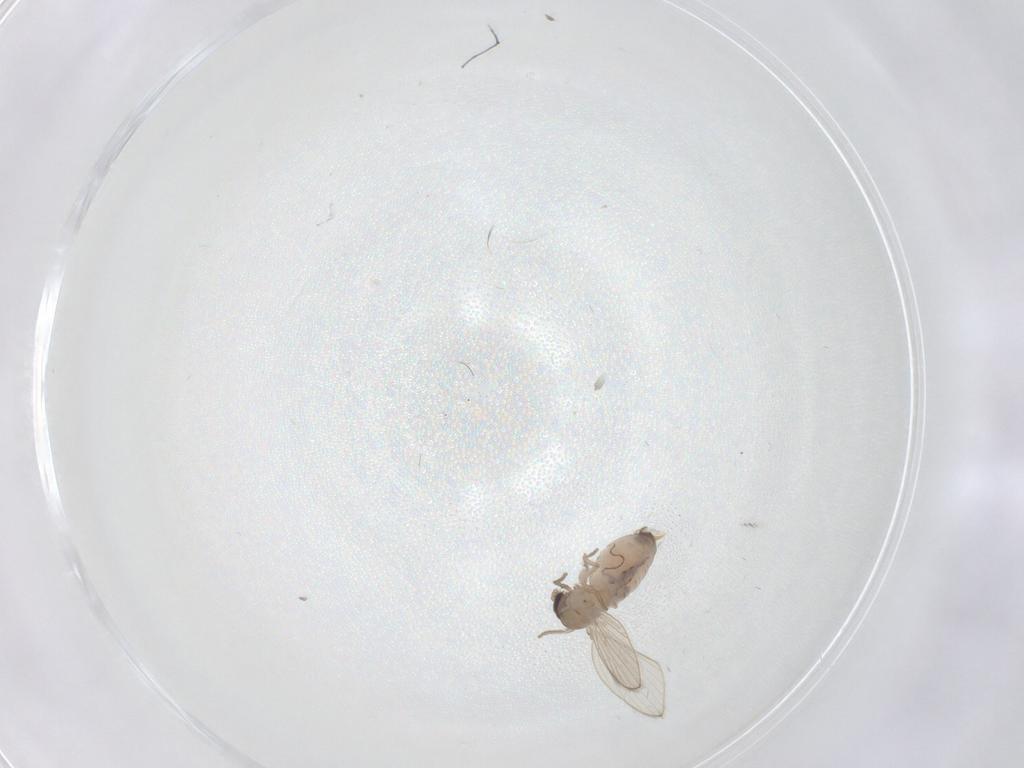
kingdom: Animalia
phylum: Arthropoda
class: Insecta
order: Diptera
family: Psychodidae
